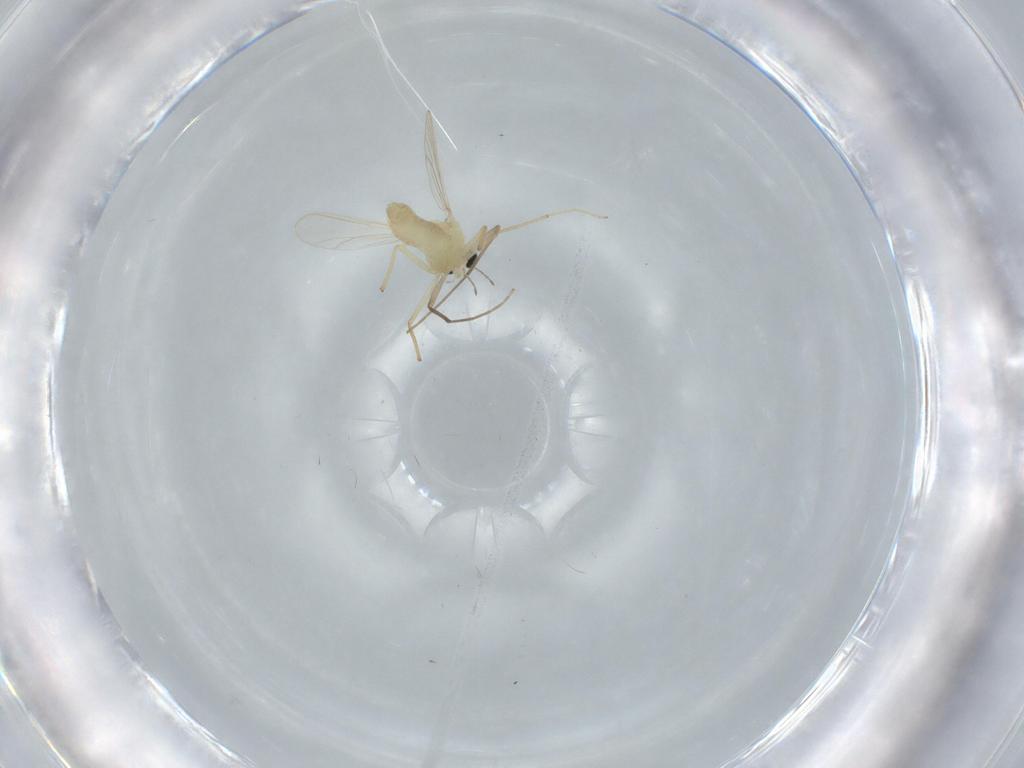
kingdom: Animalia
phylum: Arthropoda
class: Insecta
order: Diptera
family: Chironomidae
